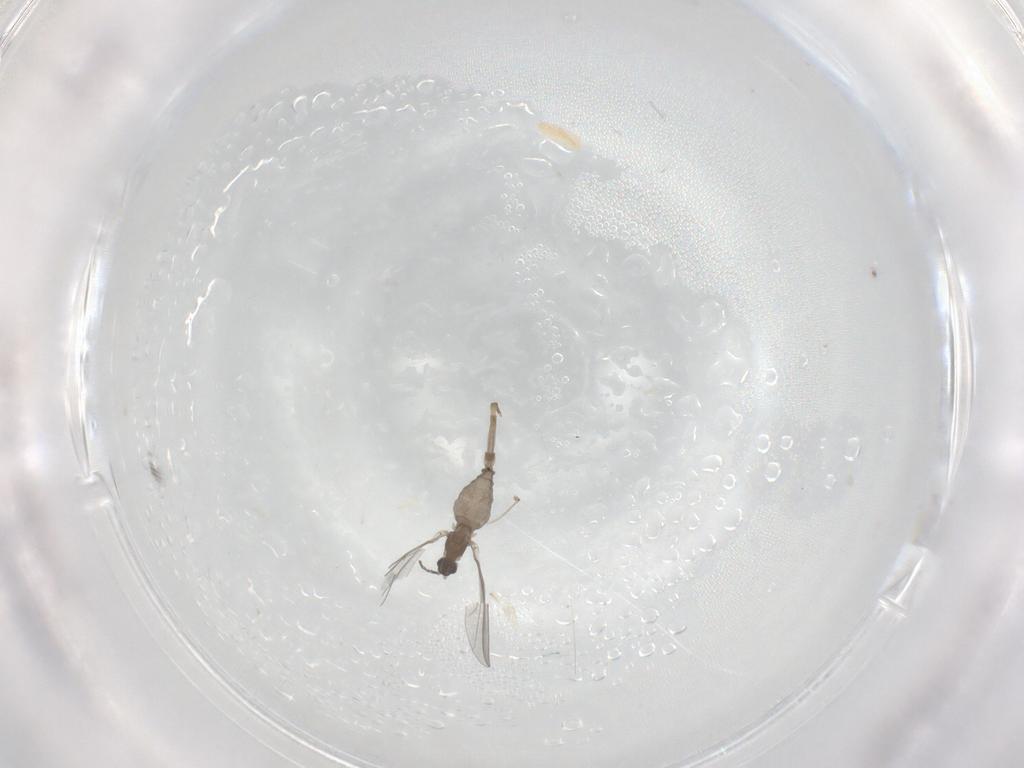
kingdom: Animalia
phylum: Arthropoda
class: Insecta
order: Diptera
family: Cecidomyiidae
